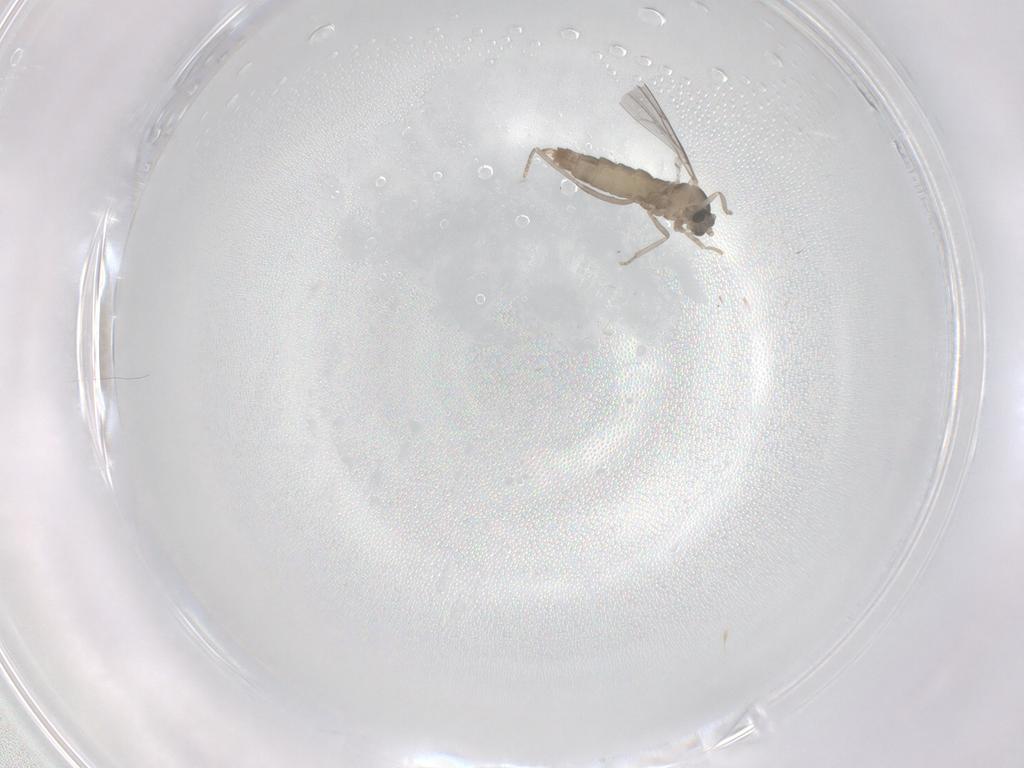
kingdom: Animalia
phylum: Arthropoda
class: Insecta
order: Diptera
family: Cecidomyiidae
